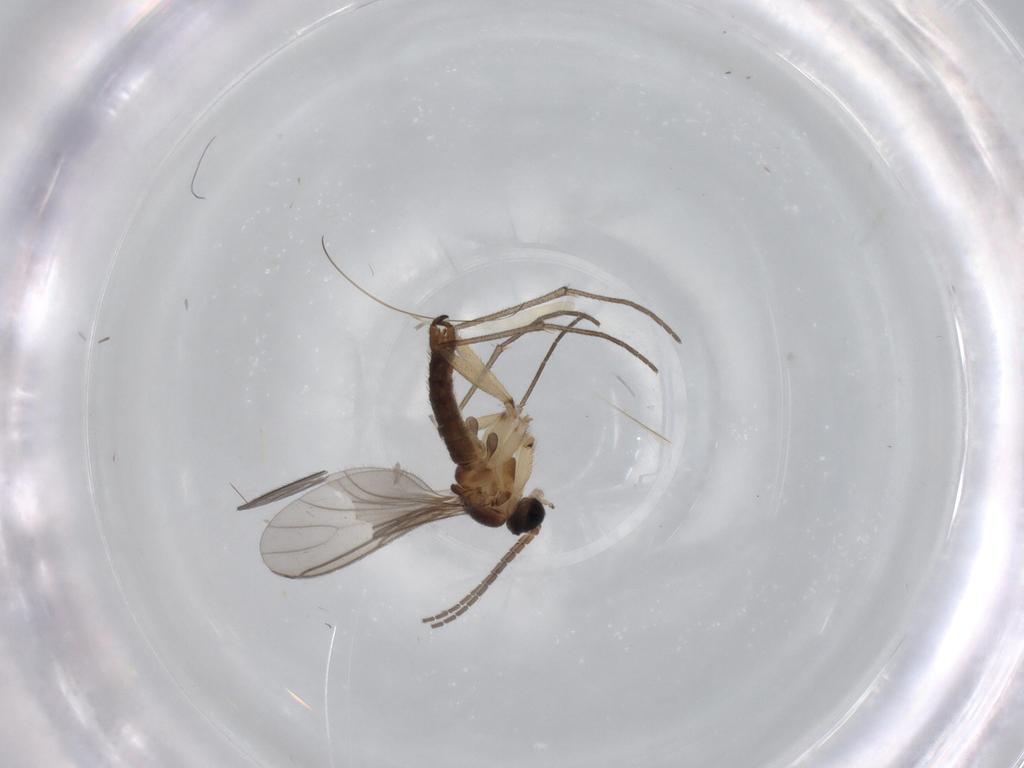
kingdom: Animalia
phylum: Arthropoda
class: Insecta
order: Diptera
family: Sciaridae
